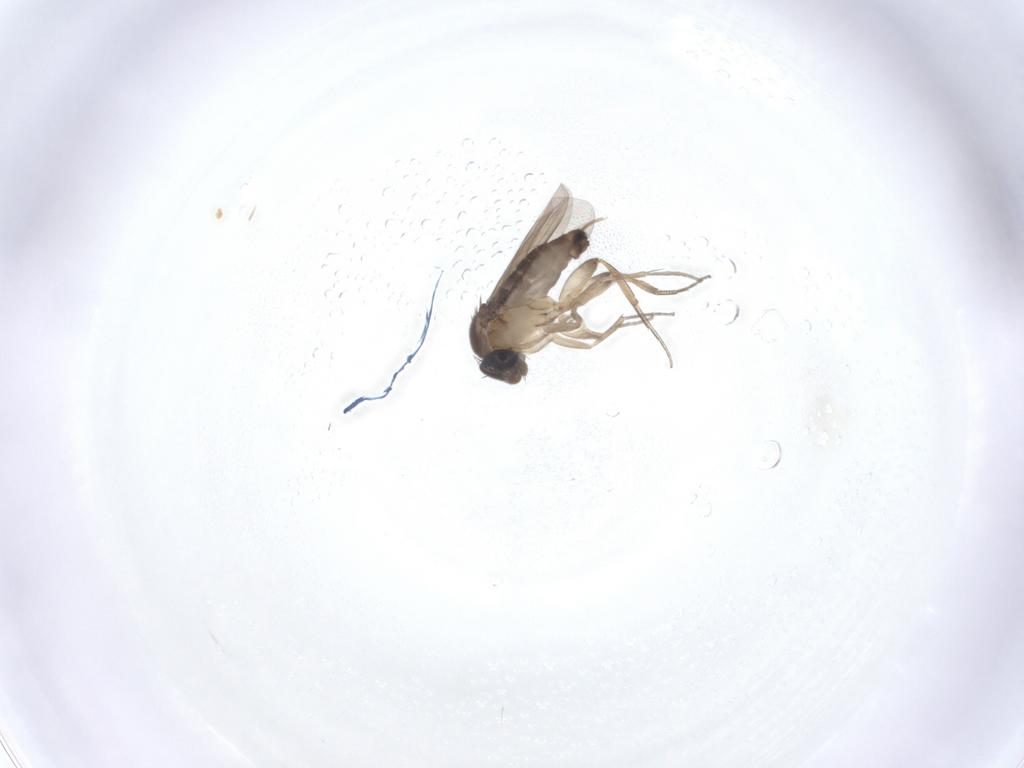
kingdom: Animalia
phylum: Arthropoda
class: Insecta
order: Diptera
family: Phoridae
